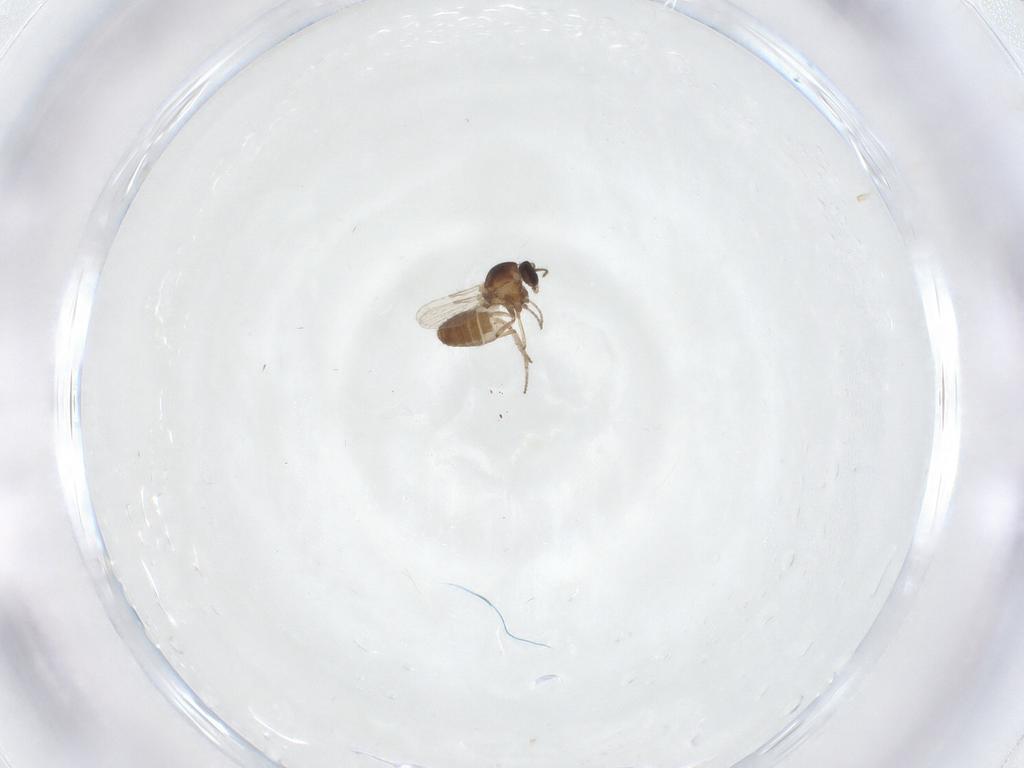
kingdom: Animalia
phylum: Arthropoda
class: Insecta
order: Diptera
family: Ceratopogonidae
